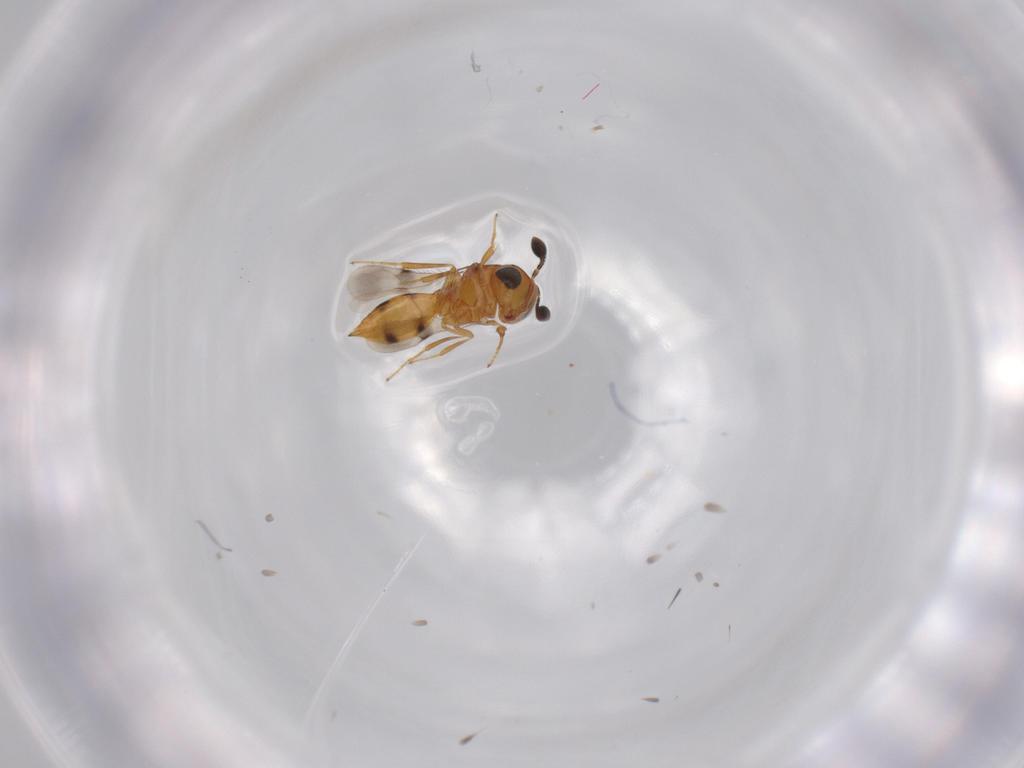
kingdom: Animalia
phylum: Arthropoda
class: Insecta
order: Hymenoptera
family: Scelionidae
